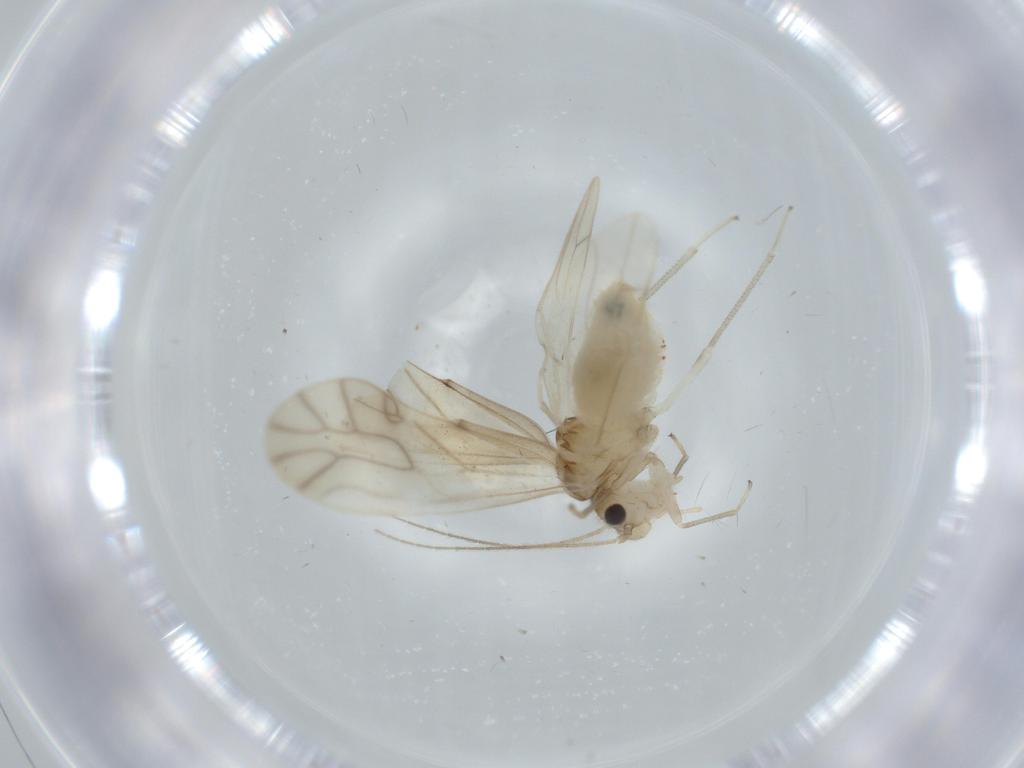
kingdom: Animalia
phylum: Arthropoda
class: Insecta
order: Psocodea
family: Caeciliusidae
